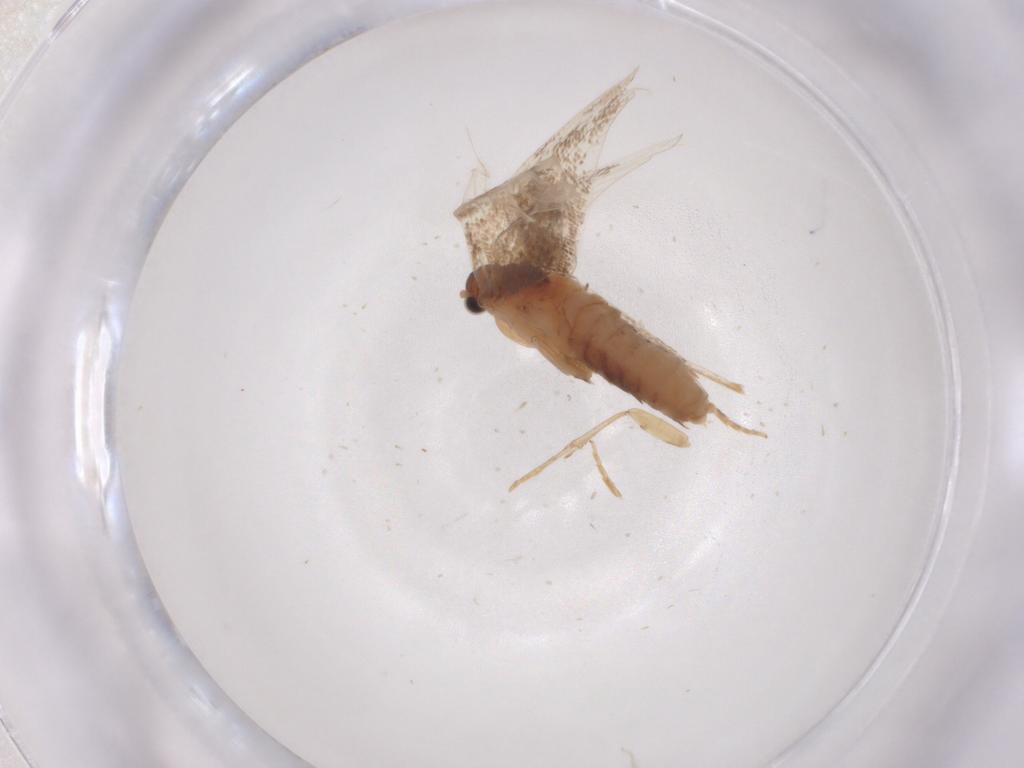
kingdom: Animalia
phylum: Arthropoda
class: Insecta
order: Lepidoptera
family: Eriocottidae
